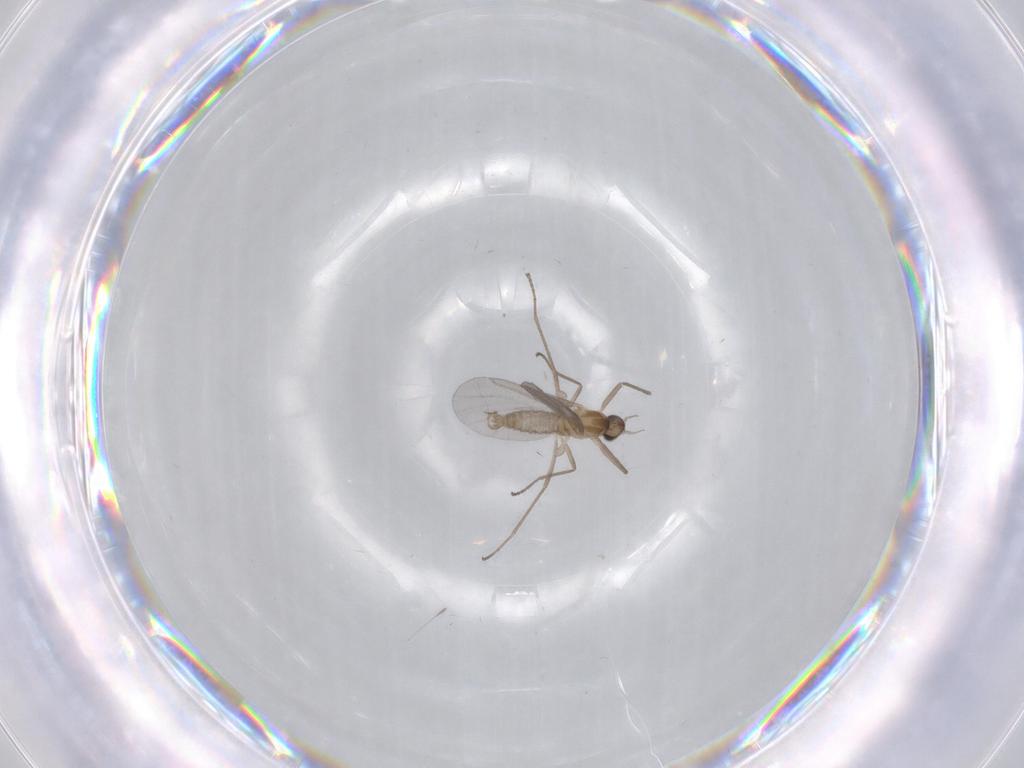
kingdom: Animalia
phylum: Arthropoda
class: Insecta
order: Diptera
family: Cecidomyiidae
